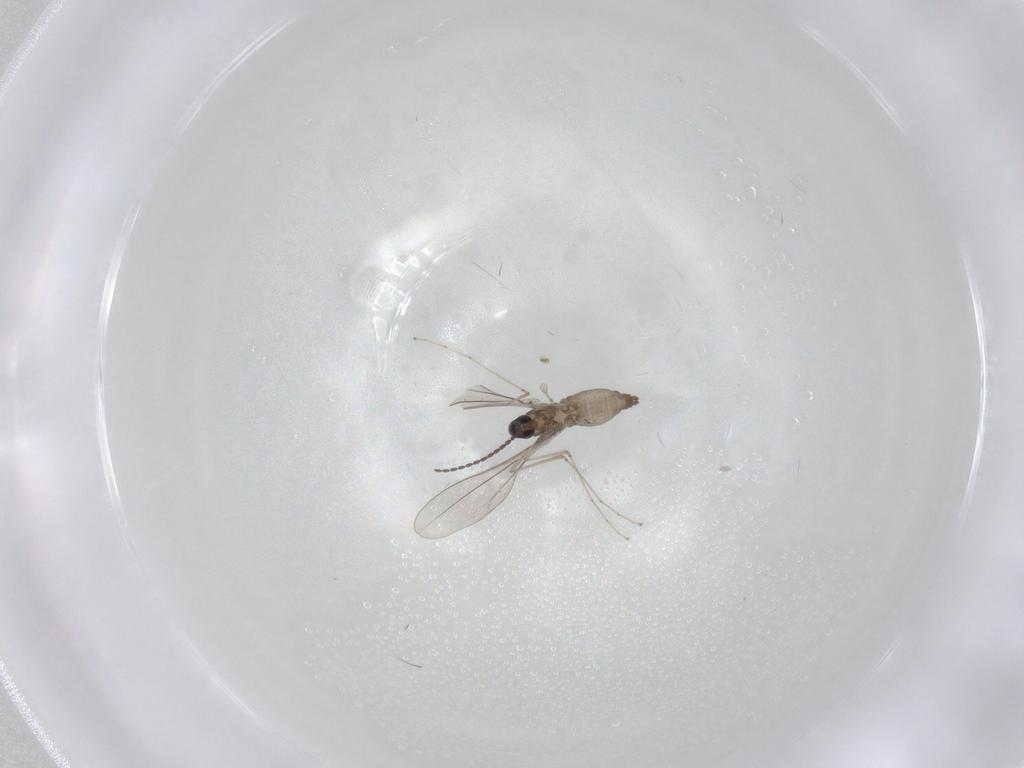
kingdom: Animalia
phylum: Arthropoda
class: Insecta
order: Diptera
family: Cecidomyiidae
